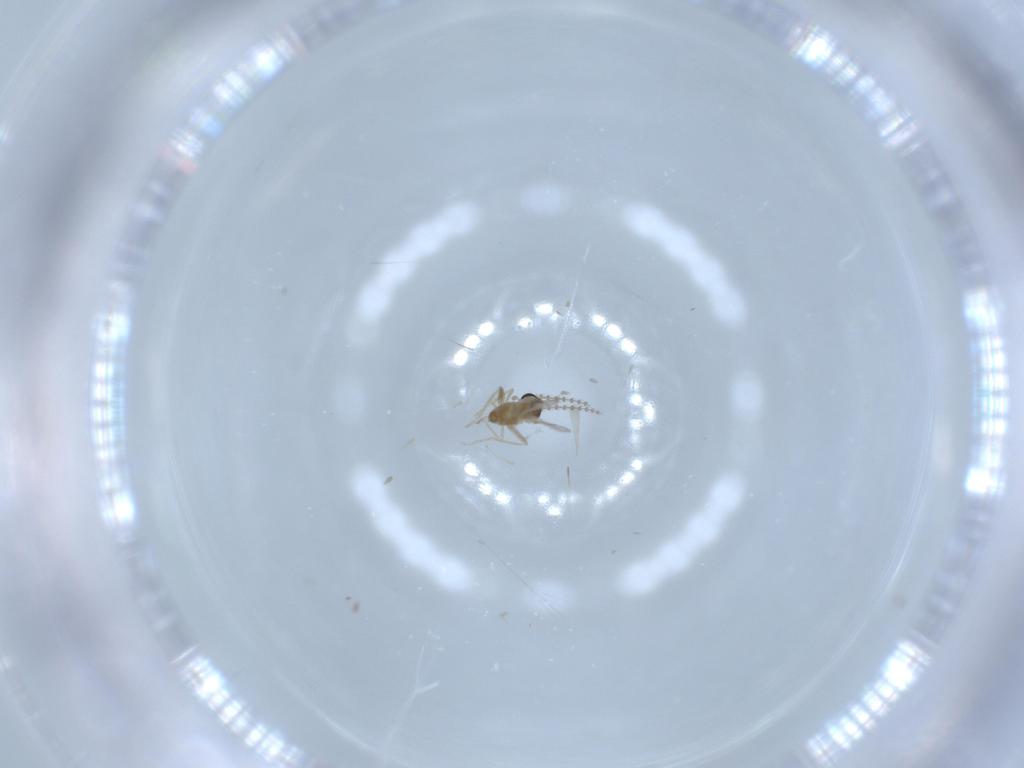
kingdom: Animalia
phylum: Arthropoda
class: Insecta
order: Diptera
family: Cecidomyiidae
